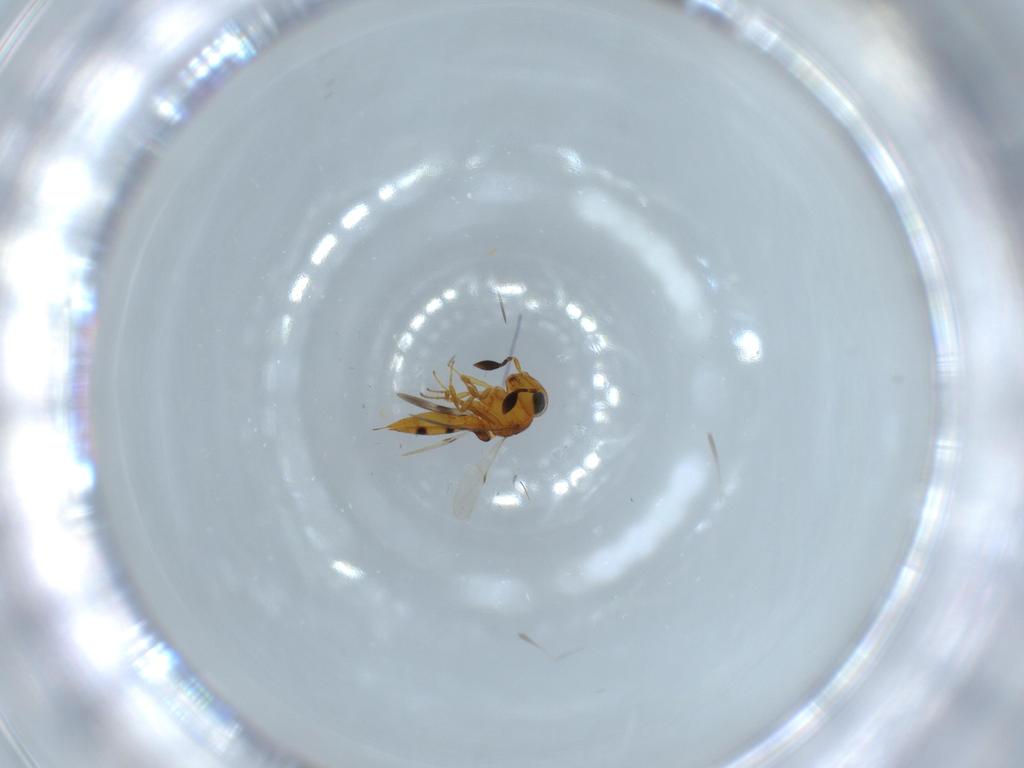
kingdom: Animalia
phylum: Arthropoda
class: Insecta
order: Hymenoptera
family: Scelionidae
